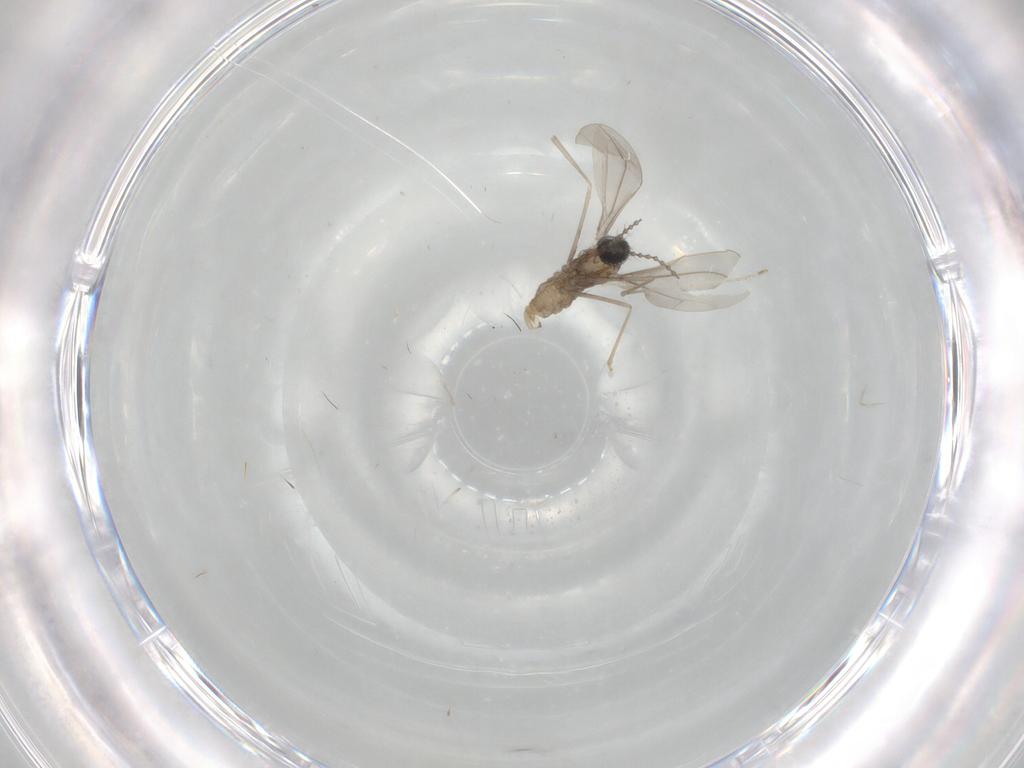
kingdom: Animalia
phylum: Arthropoda
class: Insecta
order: Diptera
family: Cecidomyiidae
